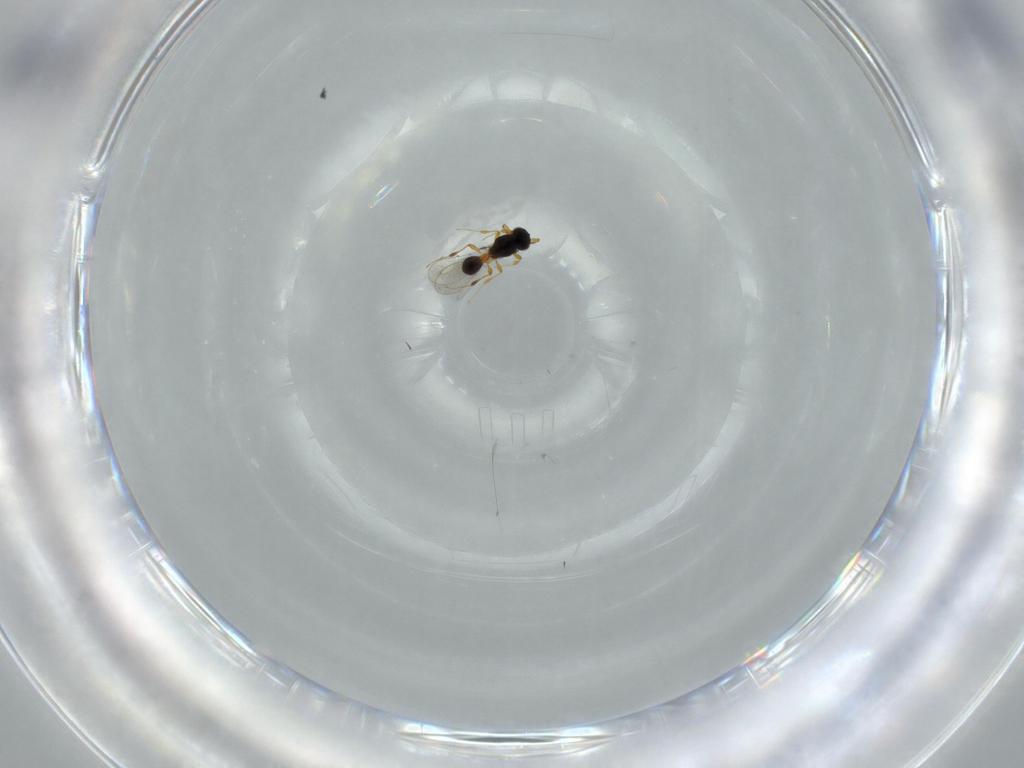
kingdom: Animalia
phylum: Arthropoda
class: Insecta
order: Hymenoptera
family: Platygastridae
